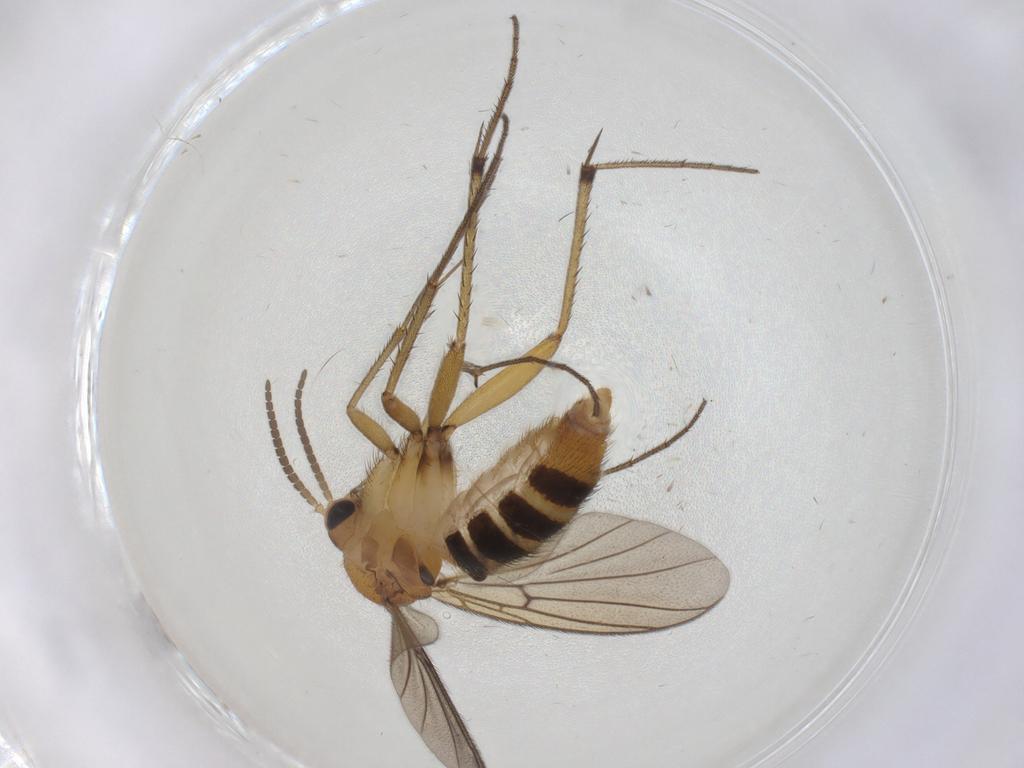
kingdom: Animalia
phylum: Arthropoda
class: Insecta
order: Diptera
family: Mycetophilidae
